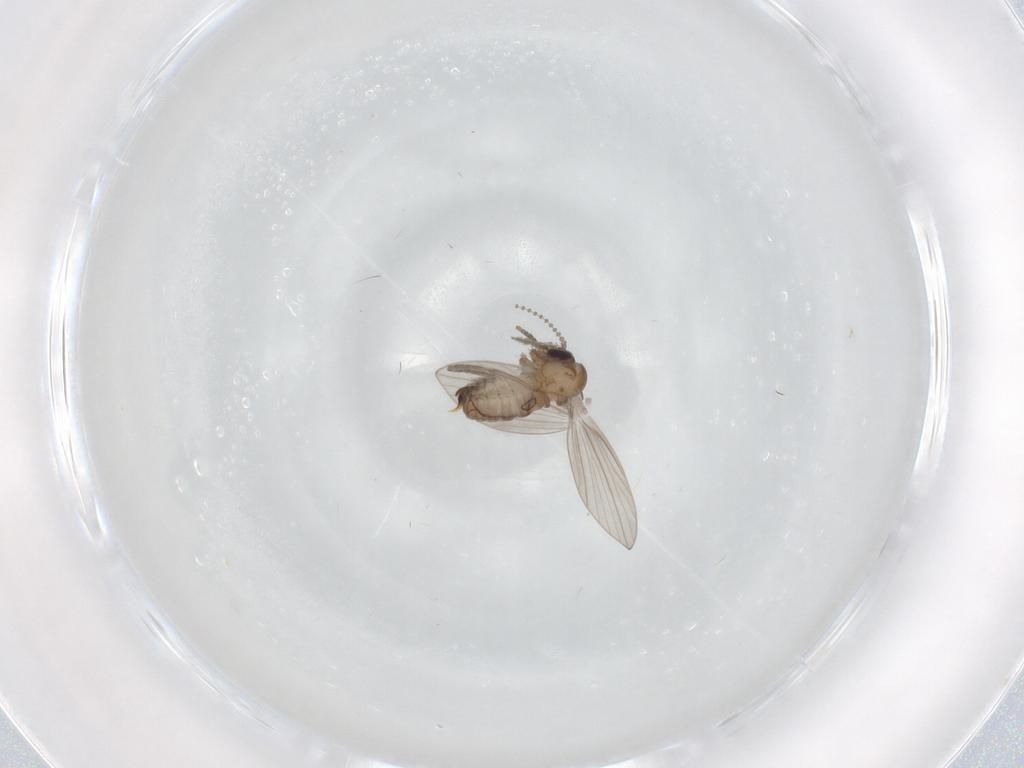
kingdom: Animalia
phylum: Arthropoda
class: Insecta
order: Diptera
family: Psychodidae
